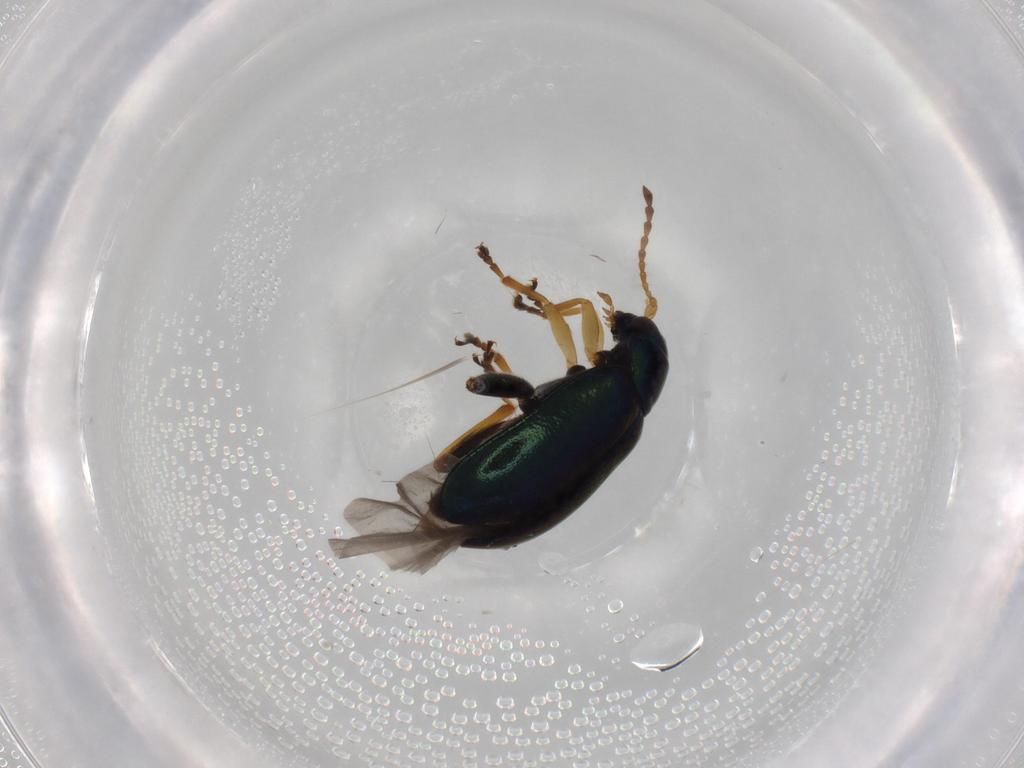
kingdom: Animalia
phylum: Arthropoda
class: Insecta
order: Coleoptera
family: Chrysomelidae
